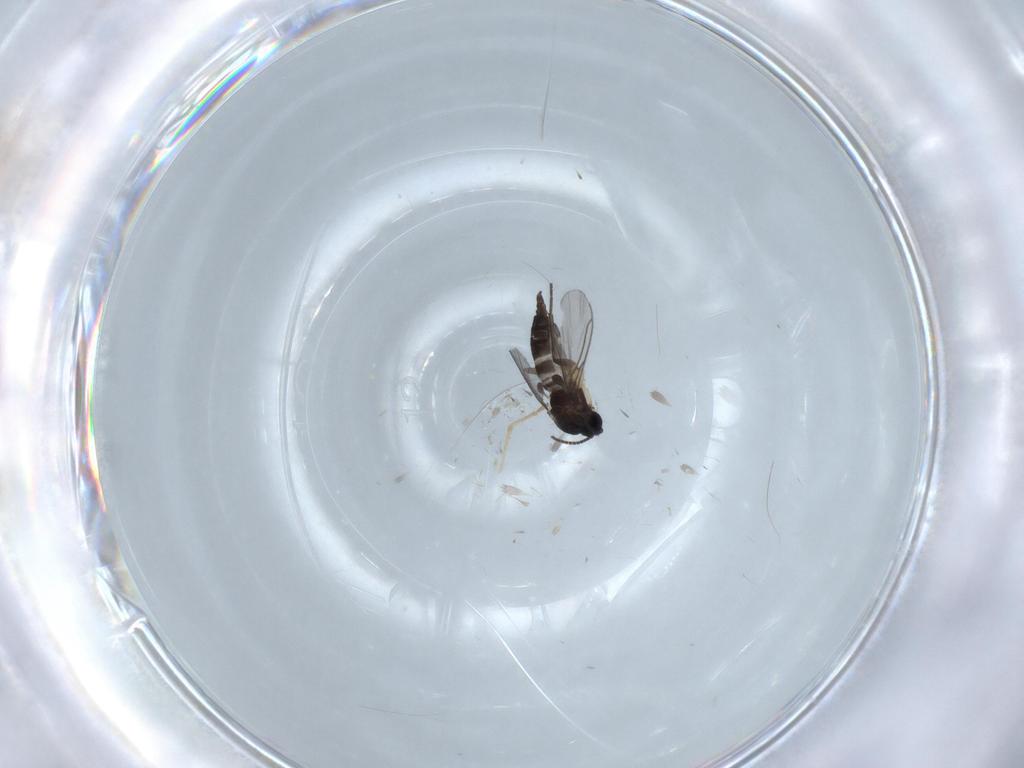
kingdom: Animalia
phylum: Arthropoda
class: Insecta
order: Diptera
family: Sciaridae
